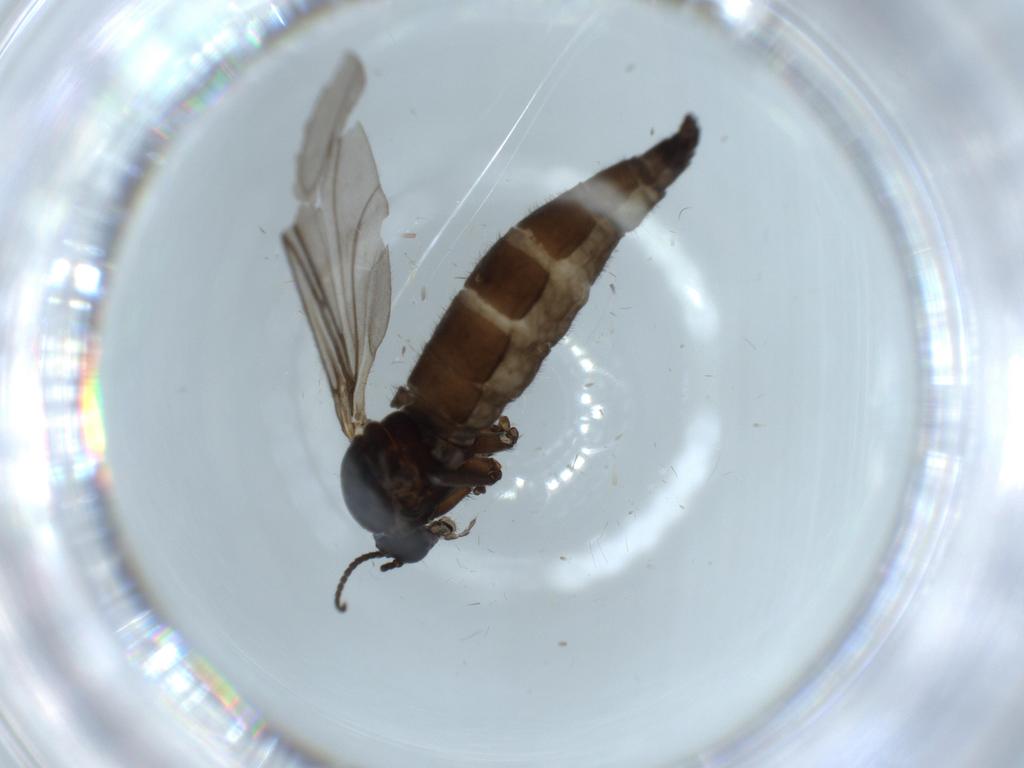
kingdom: Animalia
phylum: Arthropoda
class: Insecta
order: Diptera
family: Sciaridae
